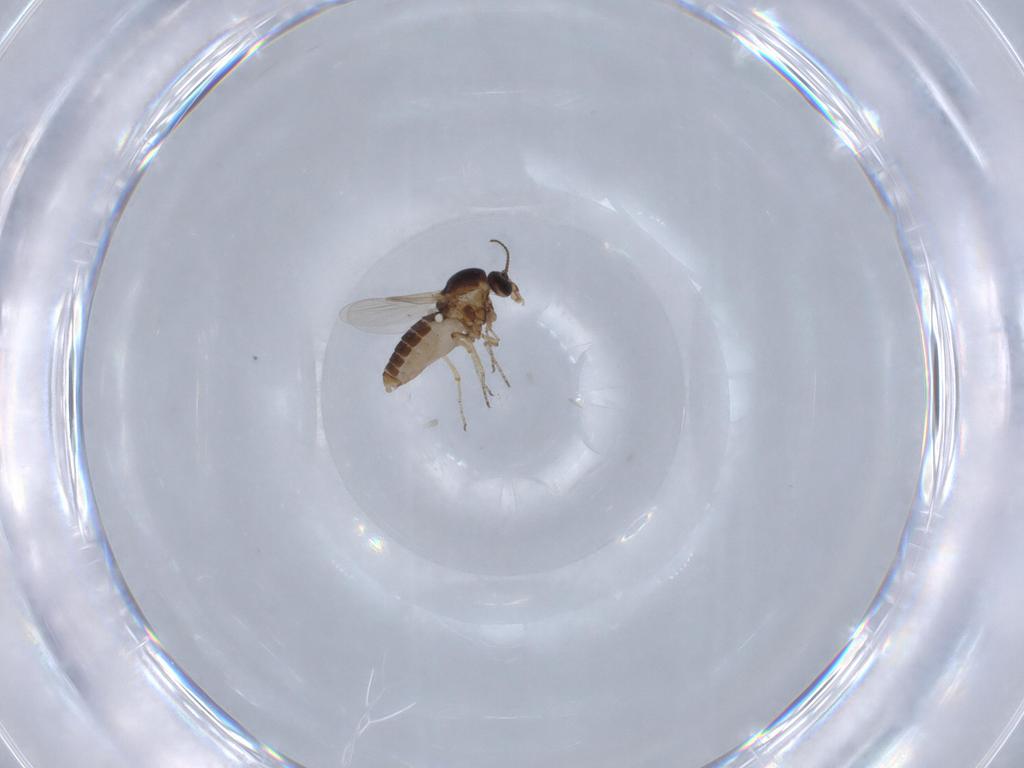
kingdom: Animalia
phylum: Arthropoda
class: Insecta
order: Diptera
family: Ceratopogonidae
